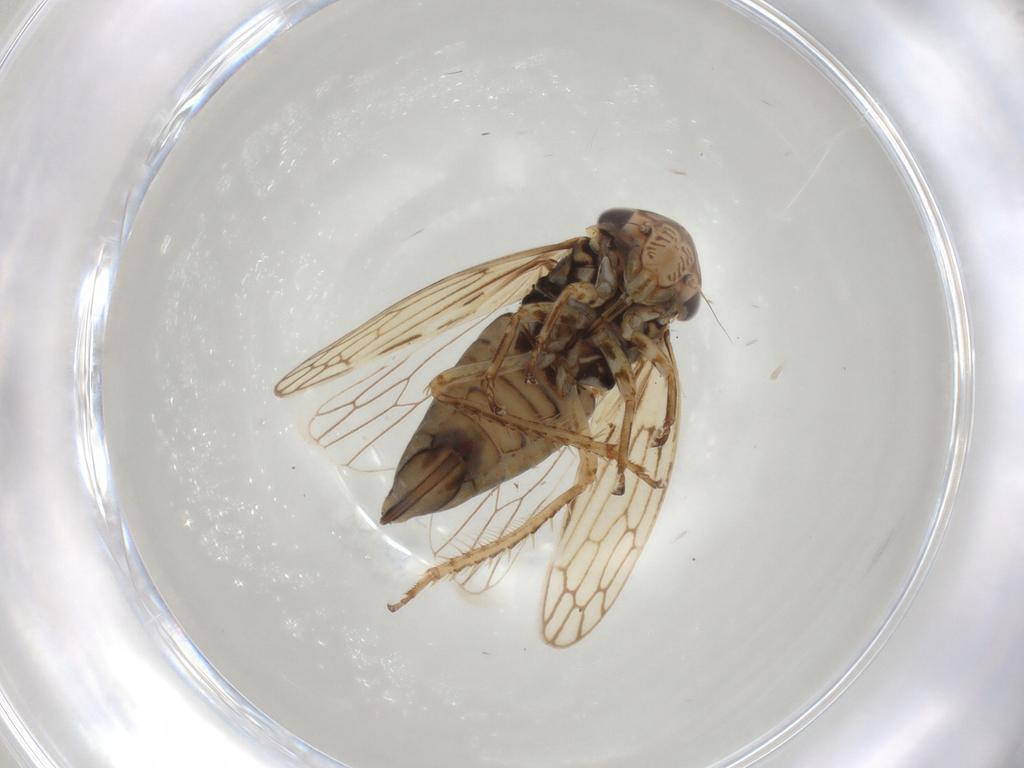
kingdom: Animalia
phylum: Arthropoda
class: Insecta
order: Hemiptera
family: Cicadellidae
